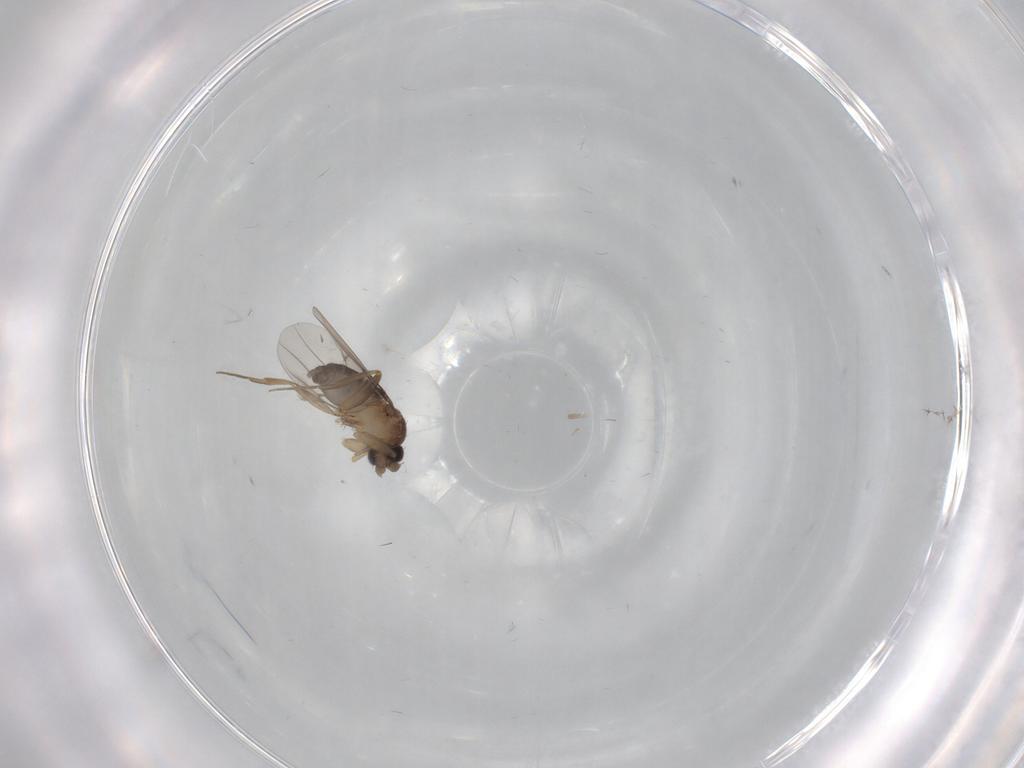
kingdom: Animalia
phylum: Arthropoda
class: Insecta
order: Diptera
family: Phoridae
